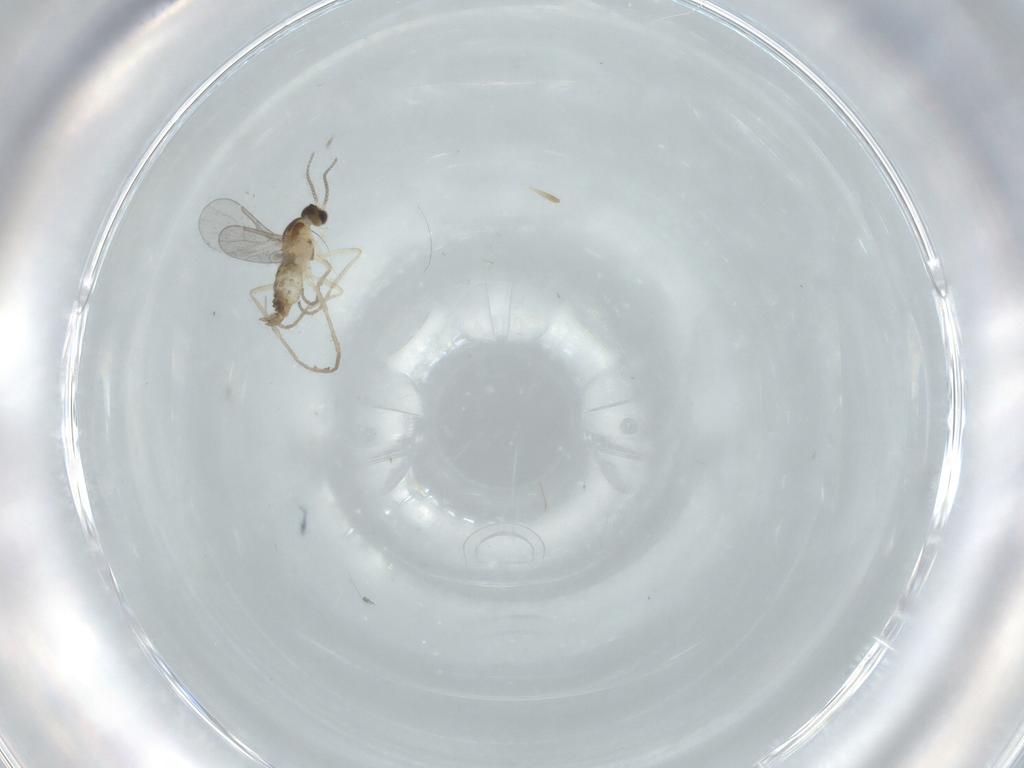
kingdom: Animalia
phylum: Arthropoda
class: Insecta
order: Diptera
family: Cecidomyiidae
